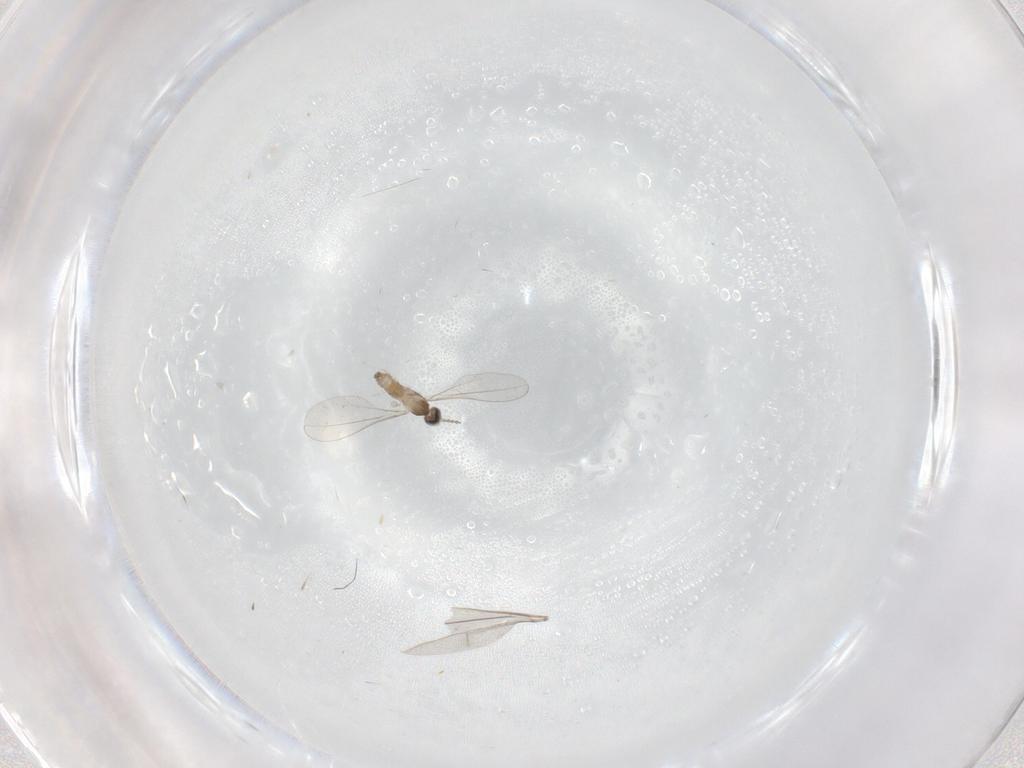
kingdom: Animalia
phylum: Arthropoda
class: Insecta
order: Diptera
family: Cecidomyiidae
